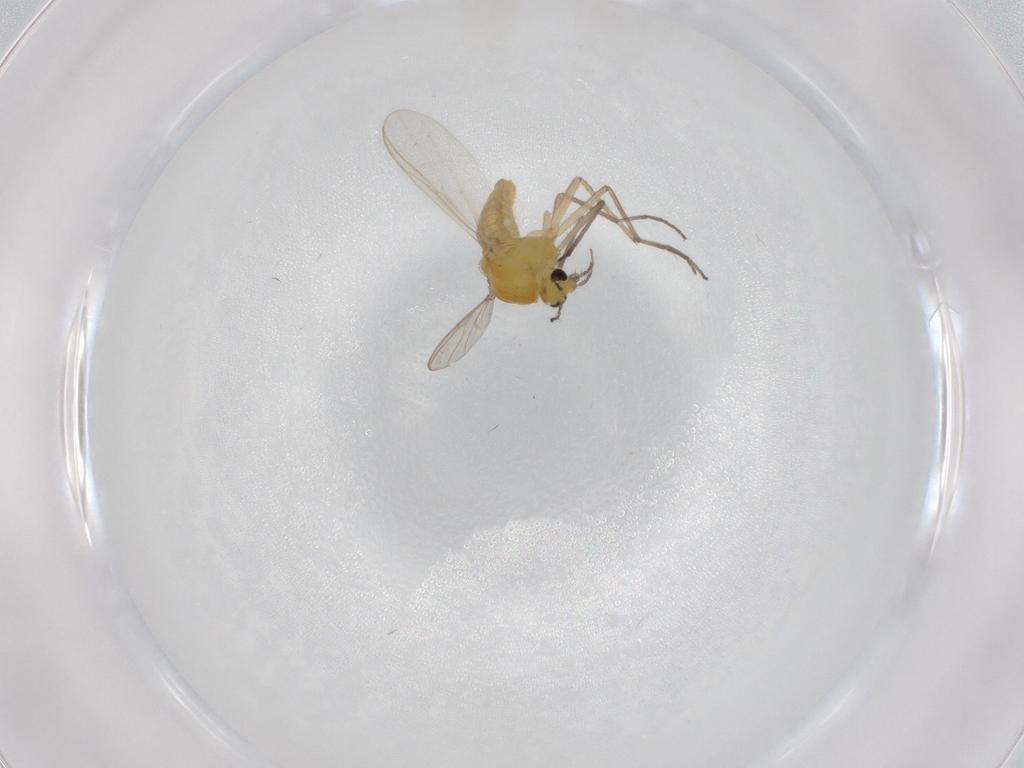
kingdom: Animalia
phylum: Arthropoda
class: Insecta
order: Diptera
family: Chironomidae
